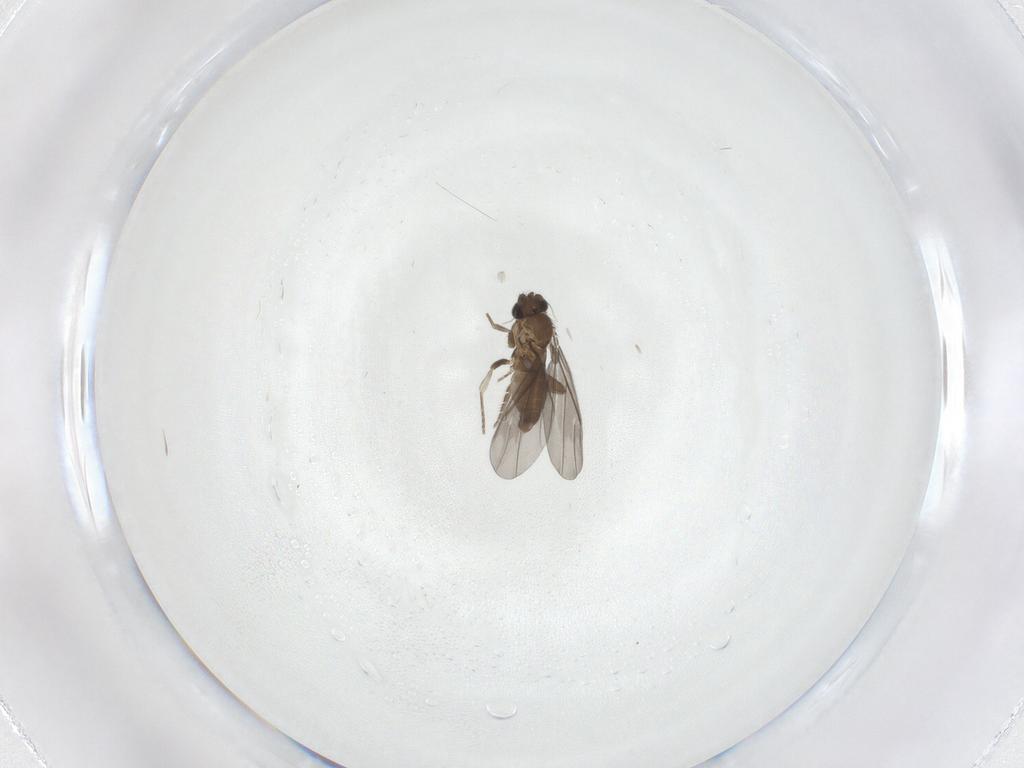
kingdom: Animalia
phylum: Arthropoda
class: Insecta
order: Diptera
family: Phoridae
